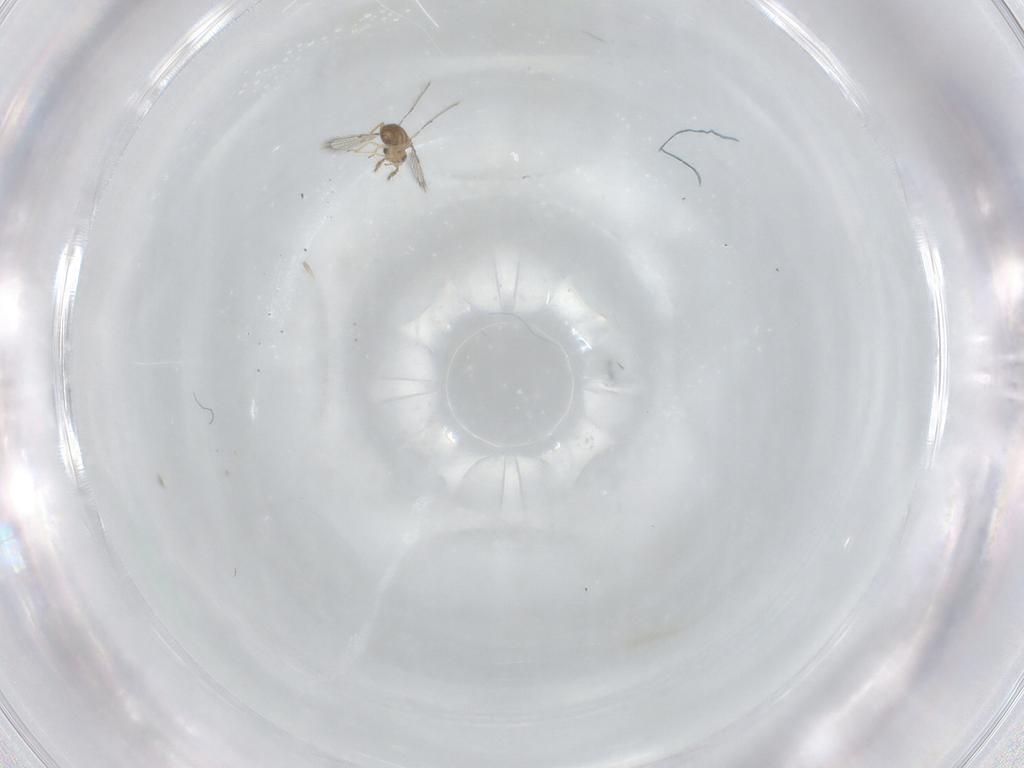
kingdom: Animalia
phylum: Arthropoda
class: Insecta
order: Hymenoptera
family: Trichogrammatidae
